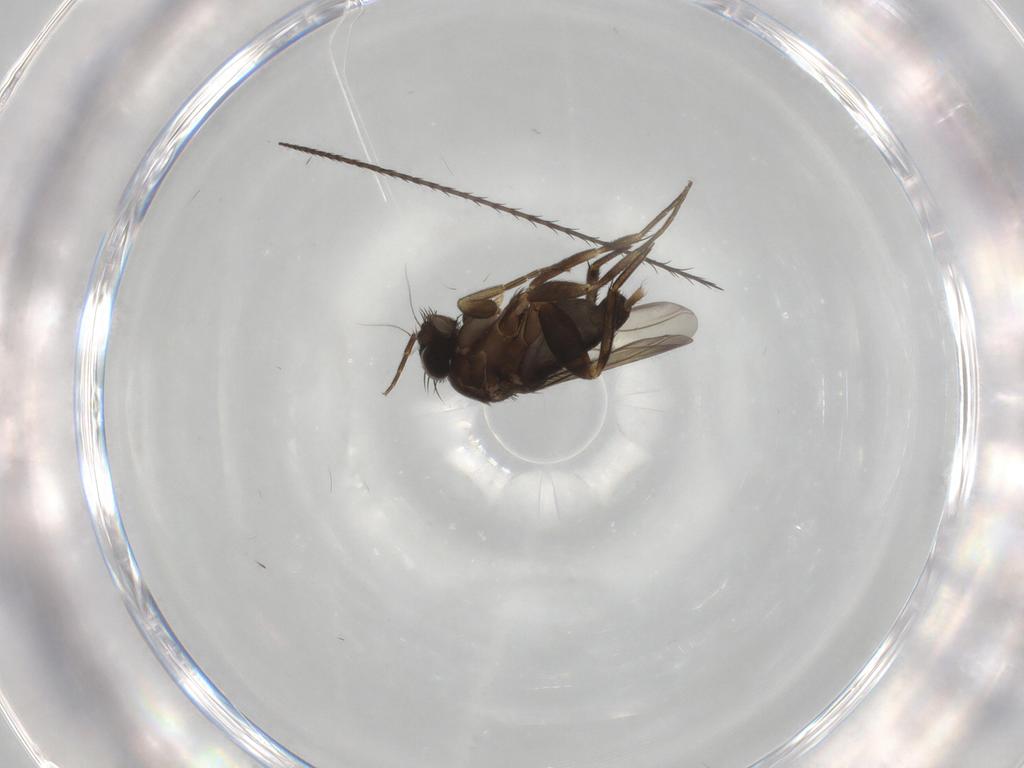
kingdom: Animalia
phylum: Arthropoda
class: Insecta
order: Diptera
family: Phoridae
